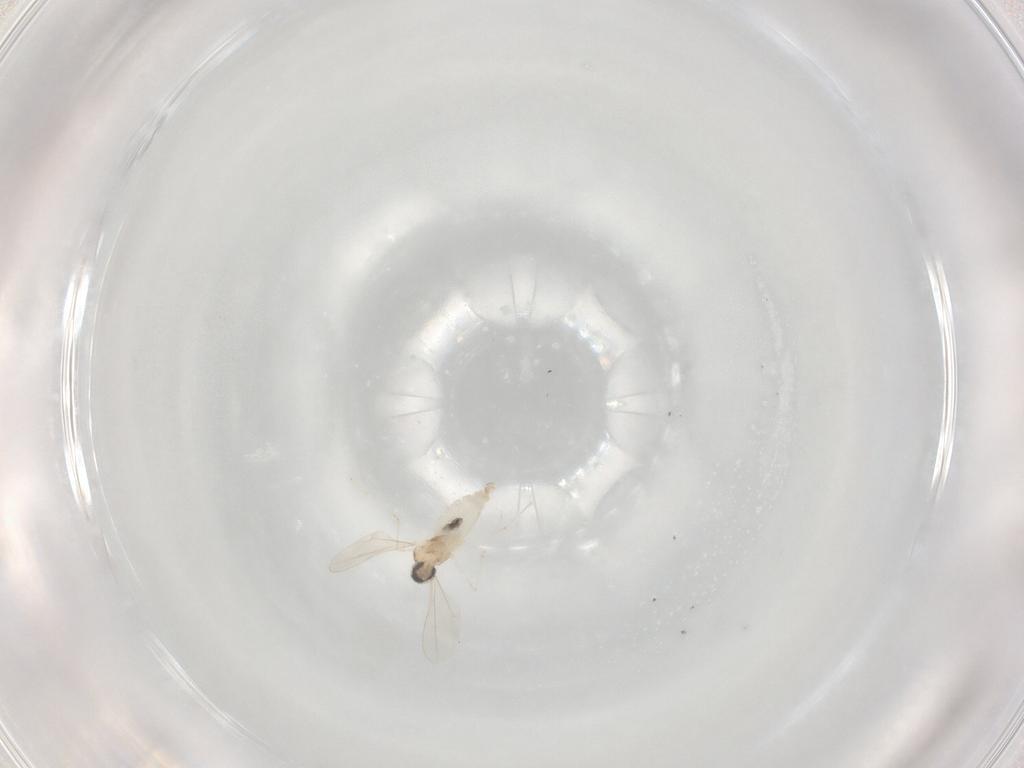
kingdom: Animalia
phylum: Arthropoda
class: Insecta
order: Diptera
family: Cecidomyiidae
